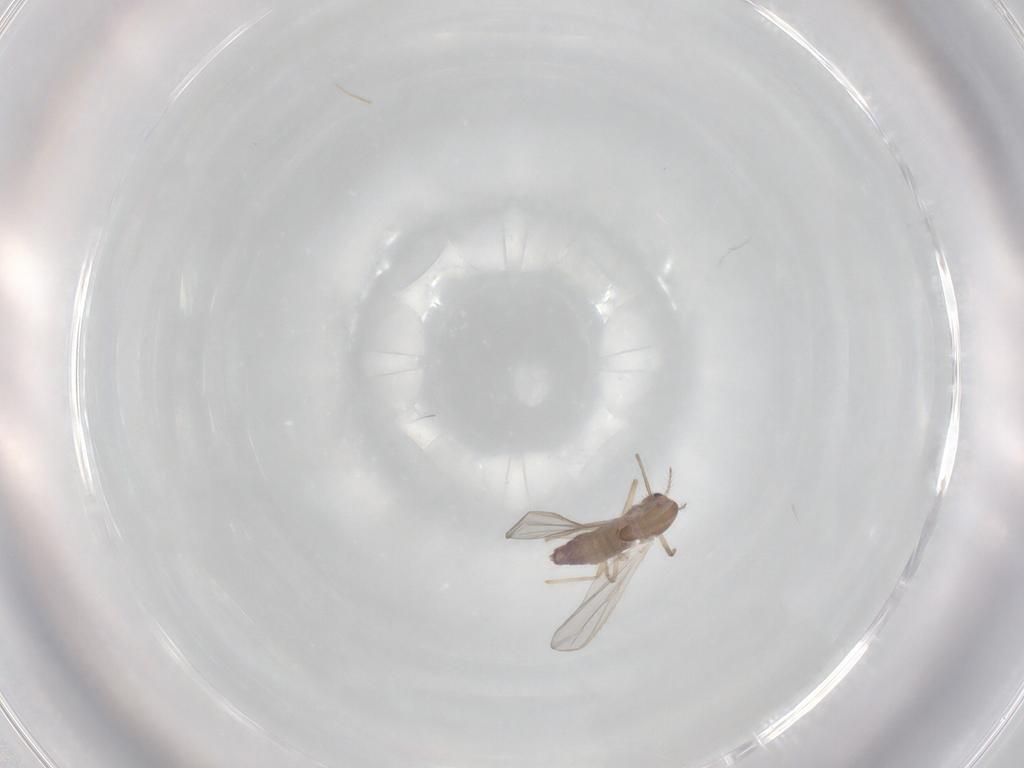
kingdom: Animalia
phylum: Arthropoda
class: Insecta
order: Diptera
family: Chironomidae
